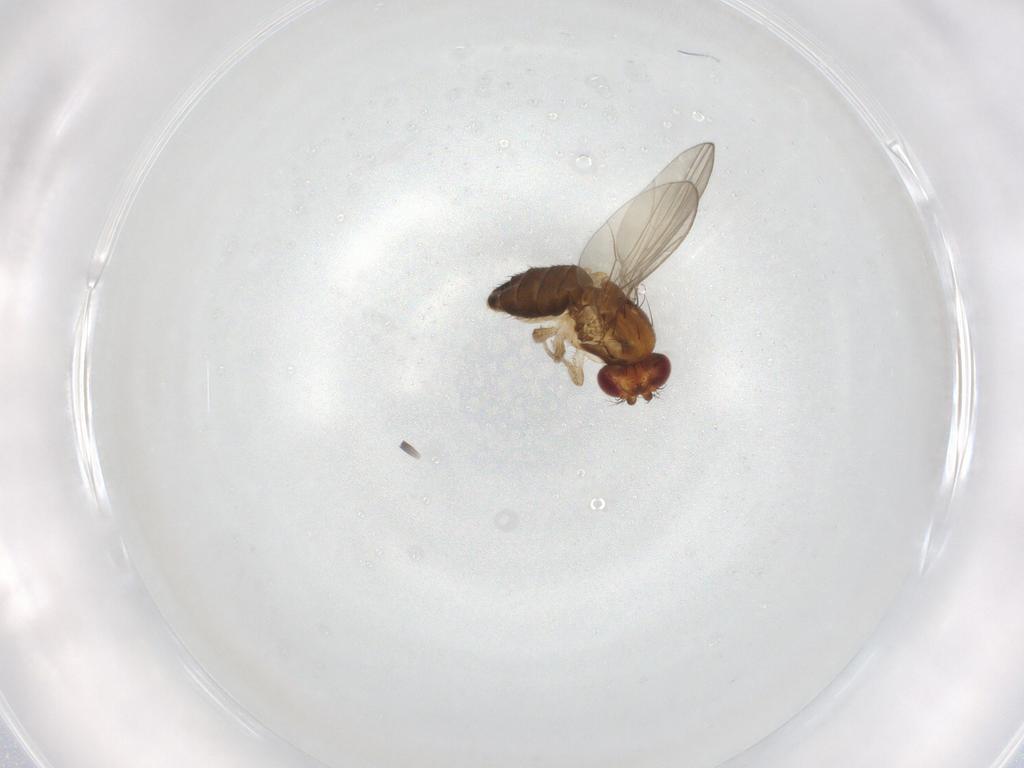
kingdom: Animalia
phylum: Arthropoda
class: Insecta
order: Diptera
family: Drosophilidae
